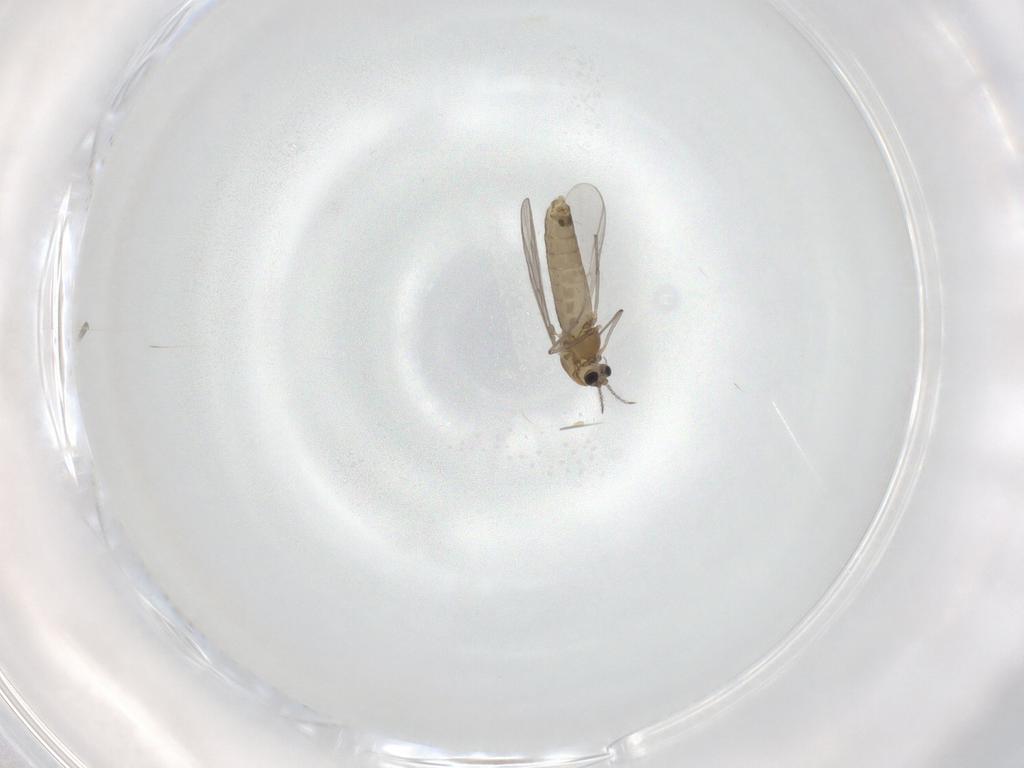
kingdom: Animalia
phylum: Arthropoda
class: Insecta
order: Diptera
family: Chironomidae
